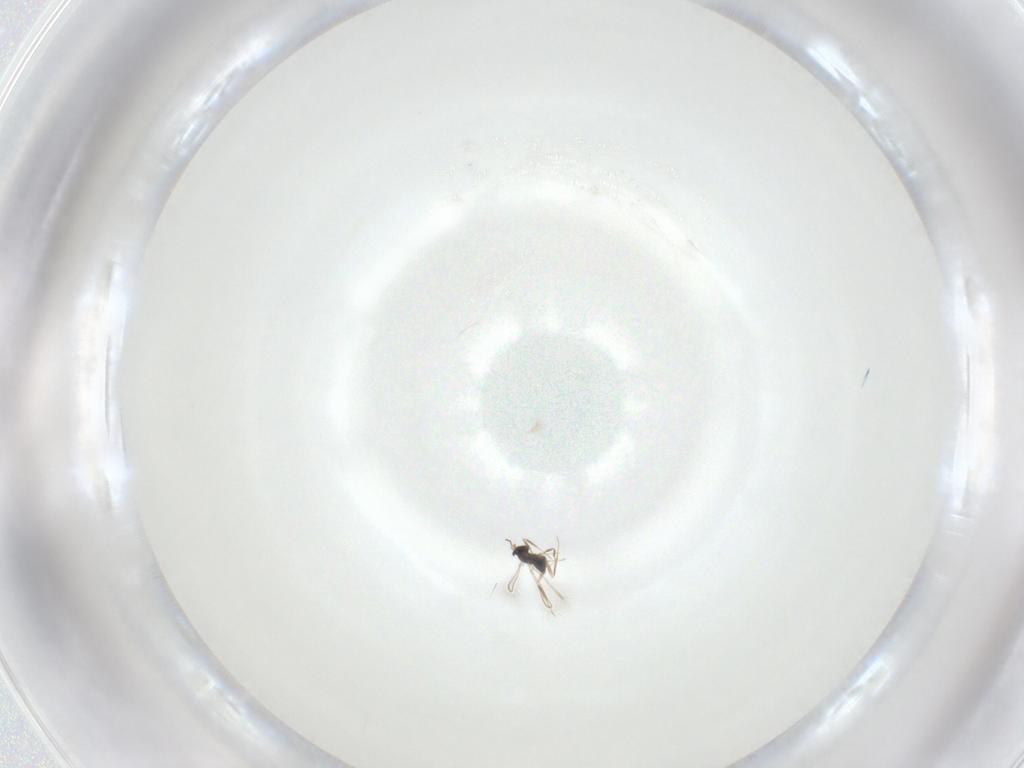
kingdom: Animalia
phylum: Arthropoda
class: Insecta
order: Hymenoptera
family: Mymaridae
